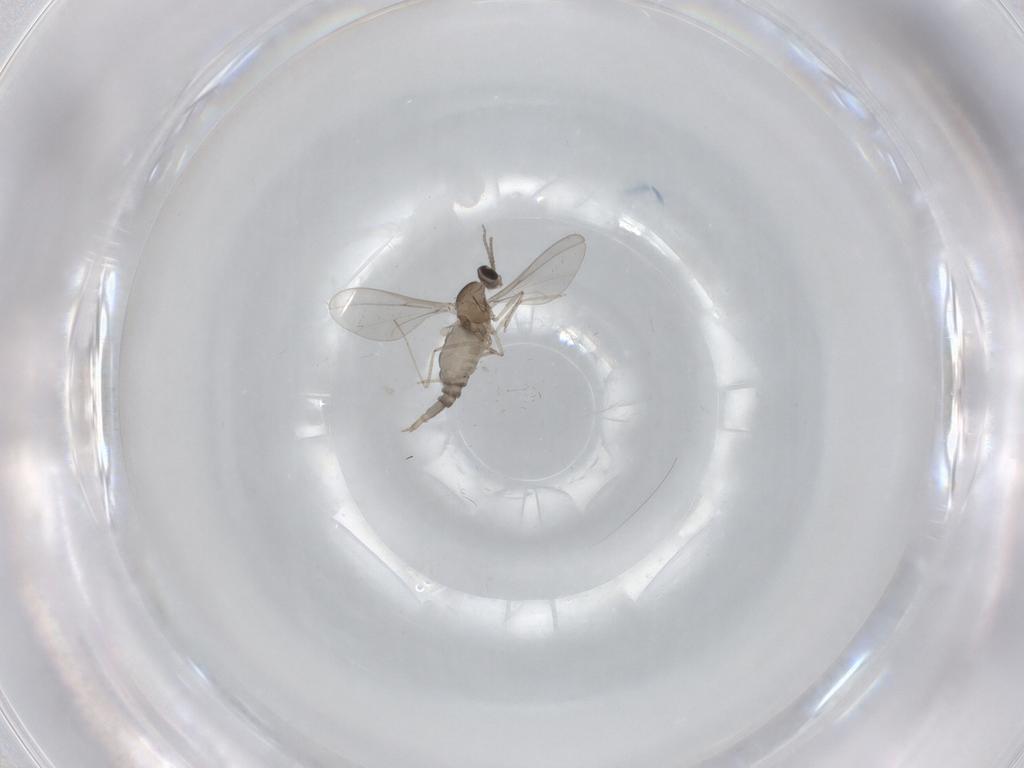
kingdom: Animalia
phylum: Arthropoda
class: Insecta
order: Diptera
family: Cecidomyiidae
